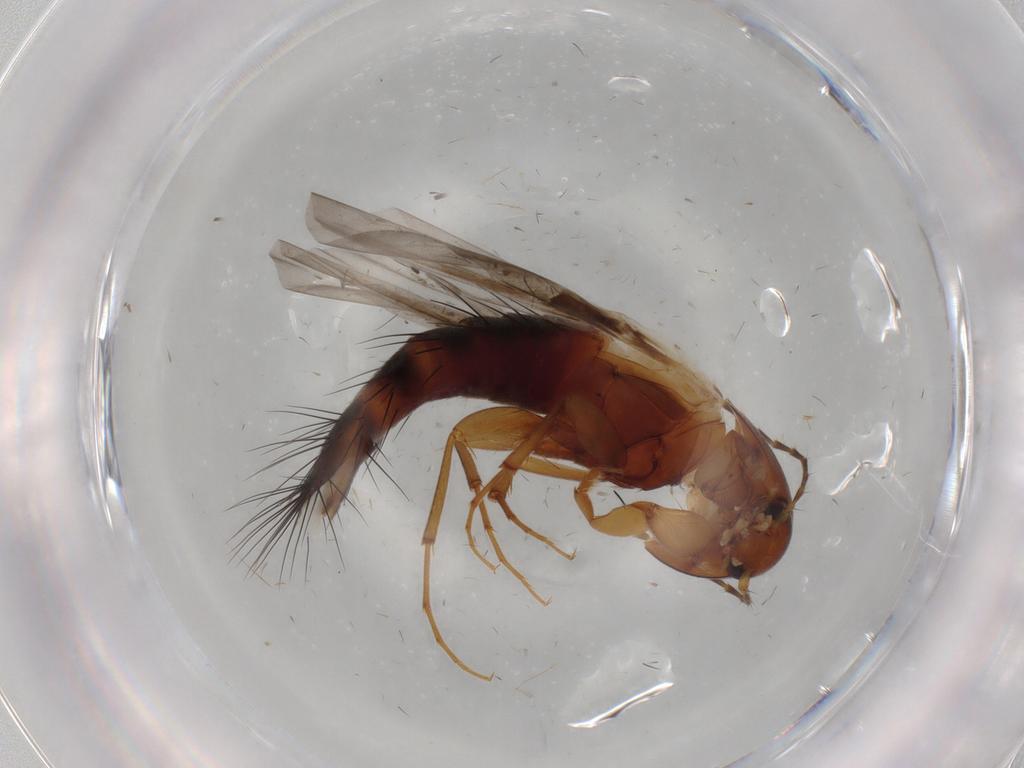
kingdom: Animalia
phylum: Arthropoda
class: Insecta
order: Coleoptera
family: Staphylinidae
